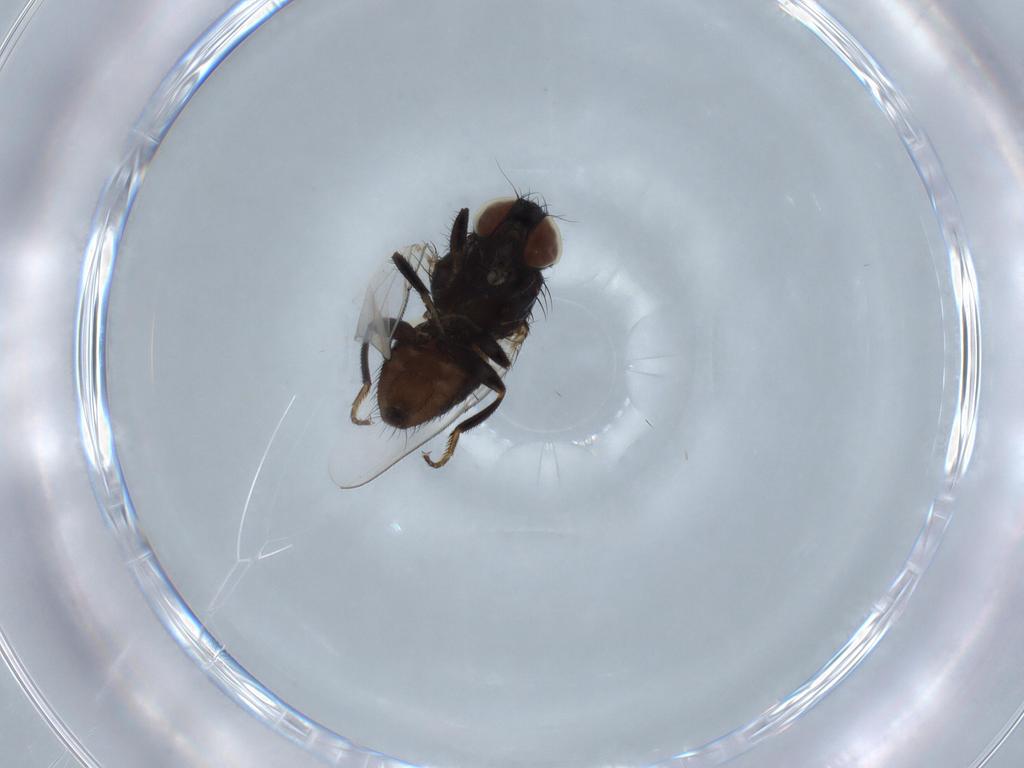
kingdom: Animalia
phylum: Arthropoda
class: Insecta
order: Diptera
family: Milichiidae
